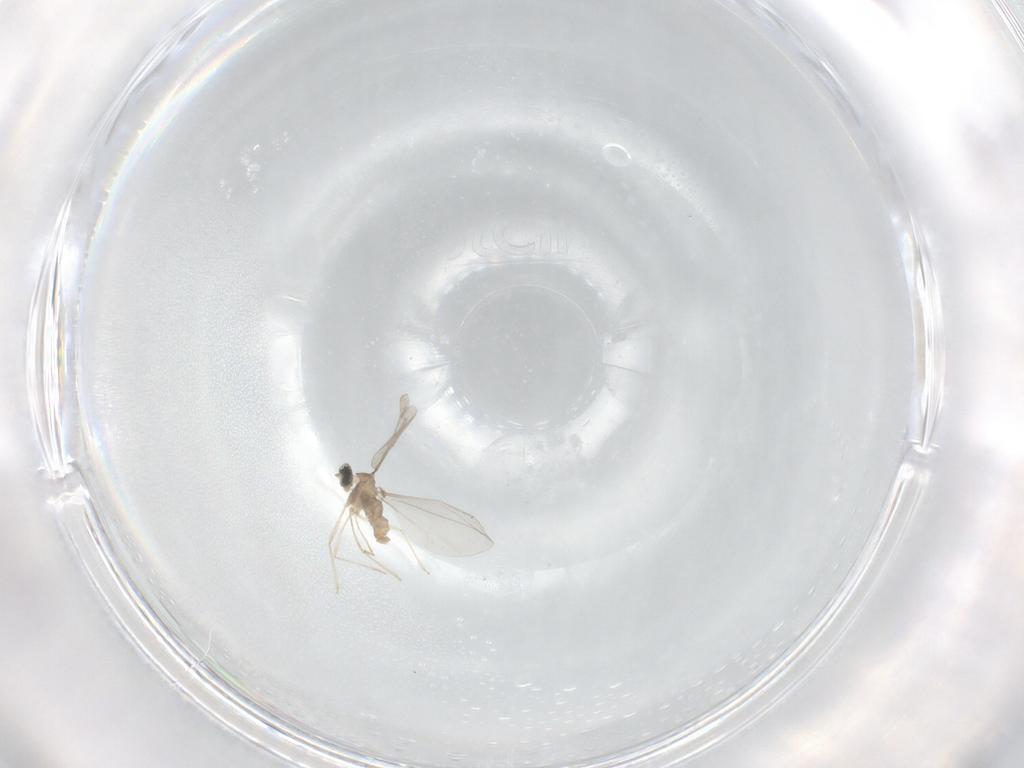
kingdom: Animalia
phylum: Arthropoda
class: Insecta
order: Diptera
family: Cecidomyiidae
